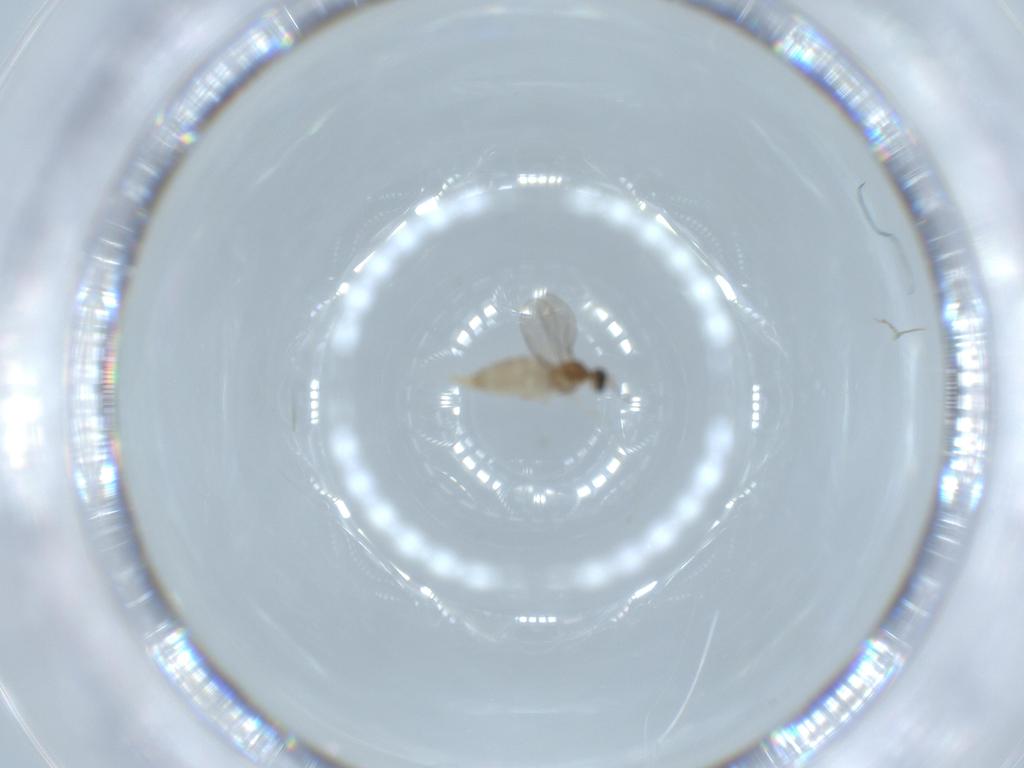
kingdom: Animalia
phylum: Arthropoda
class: Insecta
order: Diptera
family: Cecidomyiidae
